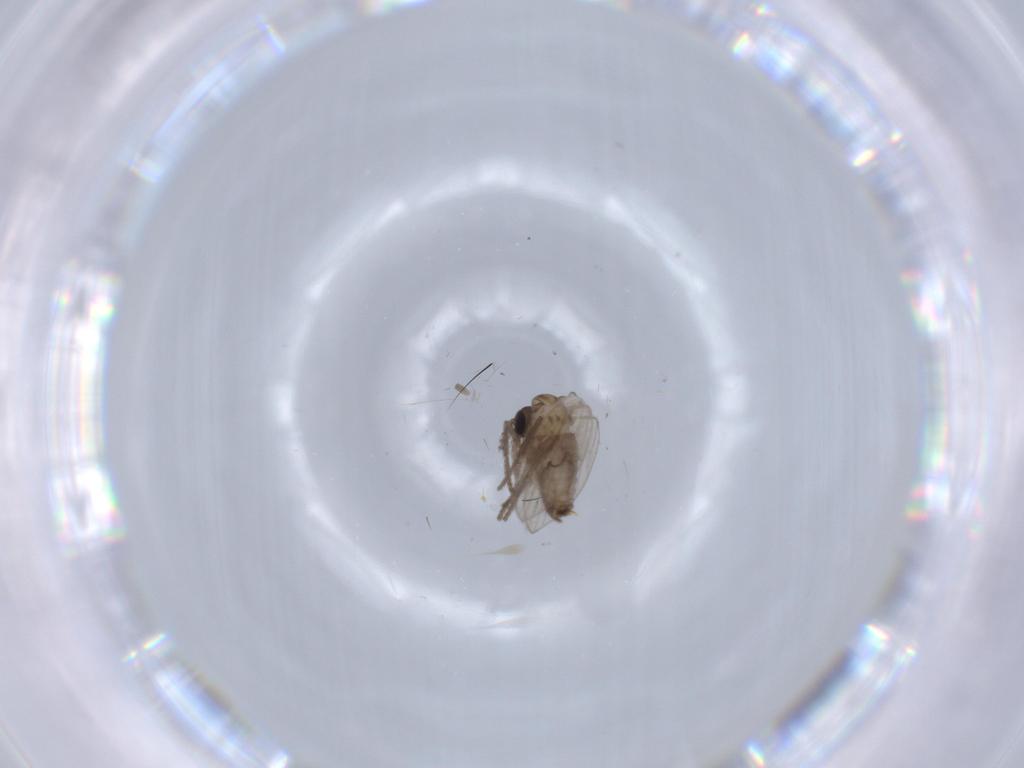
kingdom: Animalia
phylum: Arthropoda
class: Insecta
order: Diptera
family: Psychodidae
